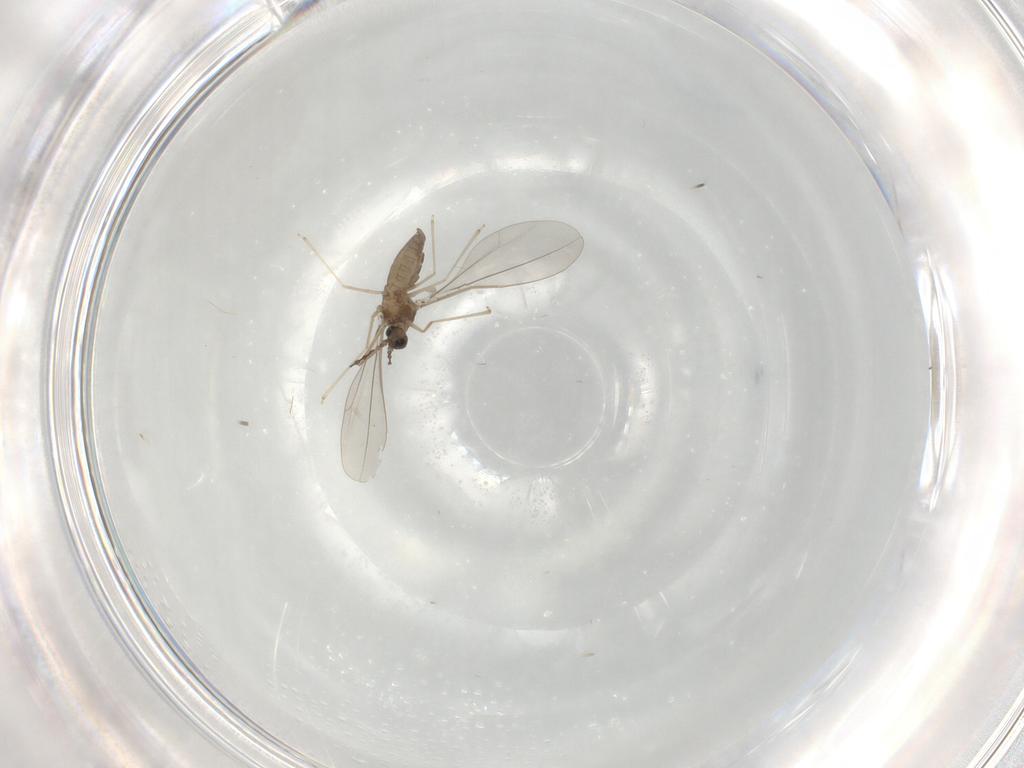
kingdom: Animalia
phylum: Arthropoda
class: Insecta
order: Diptera
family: Cecidomyiidae
